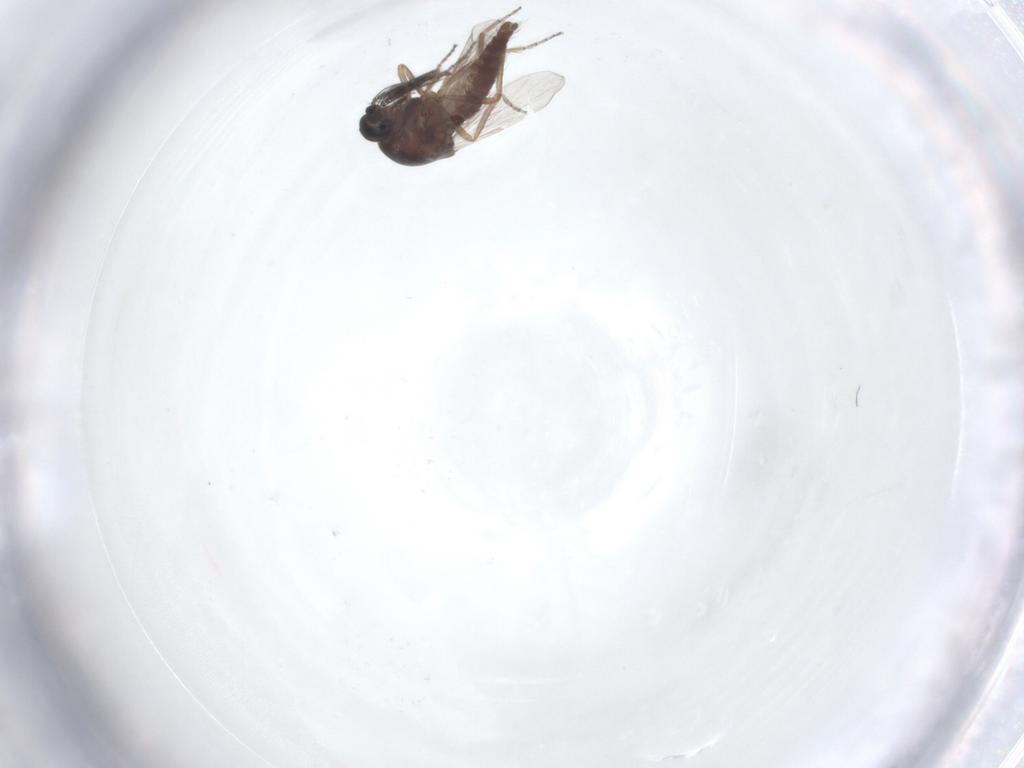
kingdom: Animalia
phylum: Arthropoda
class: Insecta
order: Diptera
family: Ceratopogonidae
